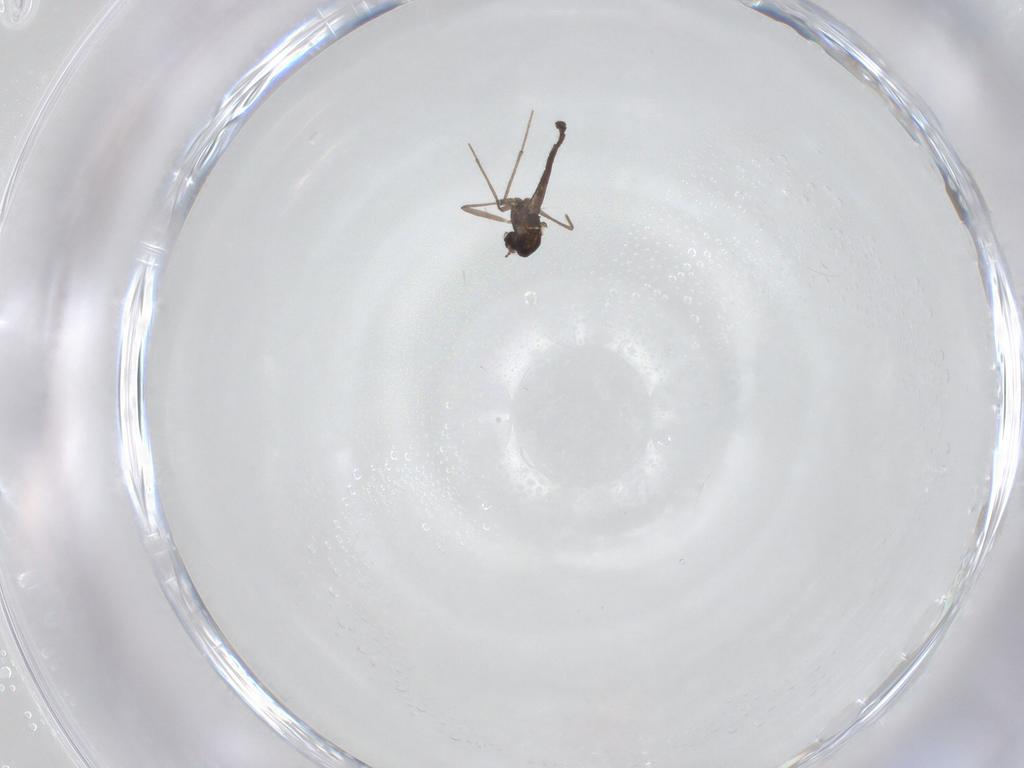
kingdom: Animalia
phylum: Arthropoda
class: Insecta
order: Diptera
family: Chironomidae
